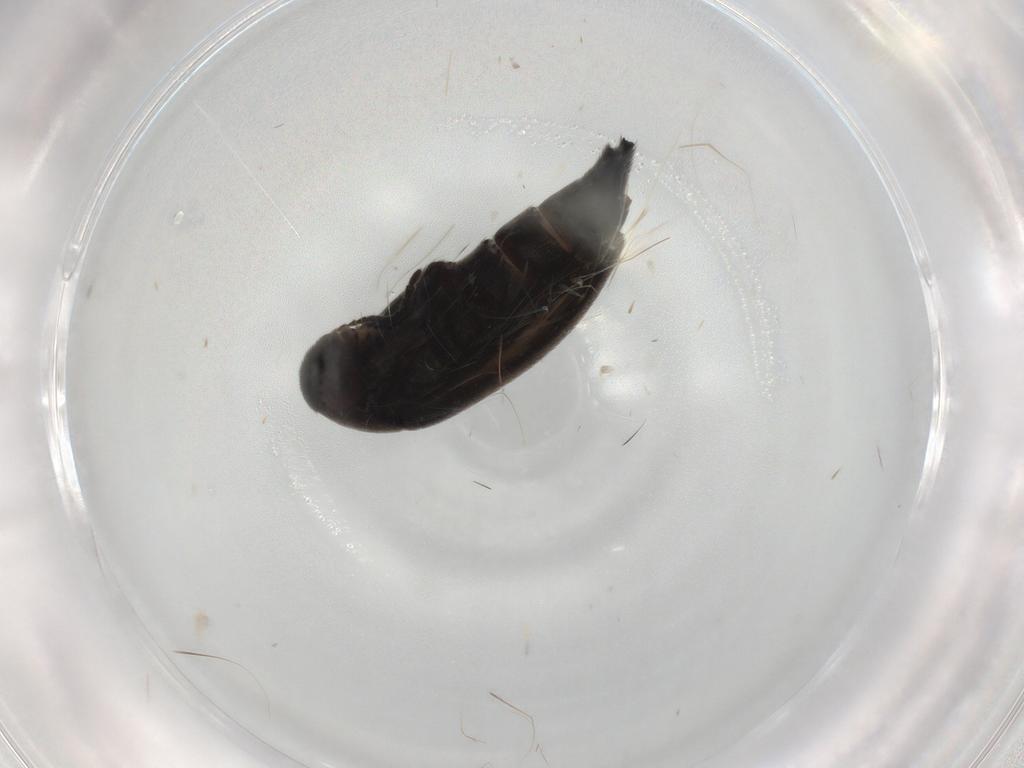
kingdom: Animalia
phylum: Arthropoda
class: Insecta
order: Coleoptera
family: Staphylinidae
